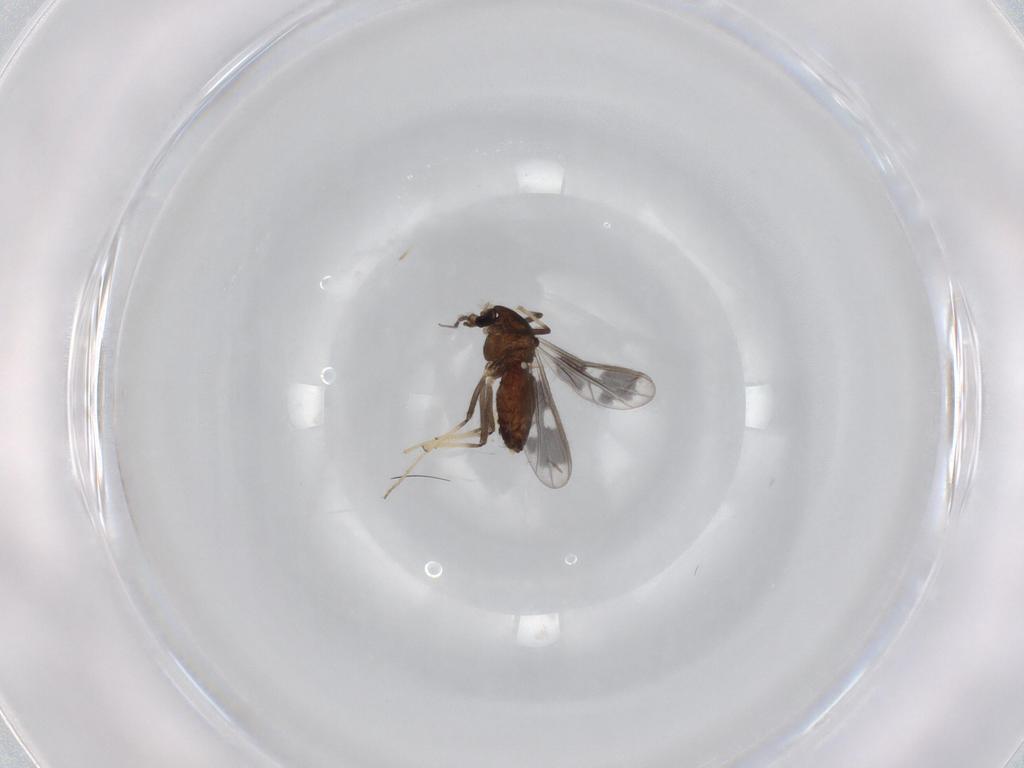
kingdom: Animalia
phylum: Arthropoda
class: Insecta
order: Diptera
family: Chironomidae
